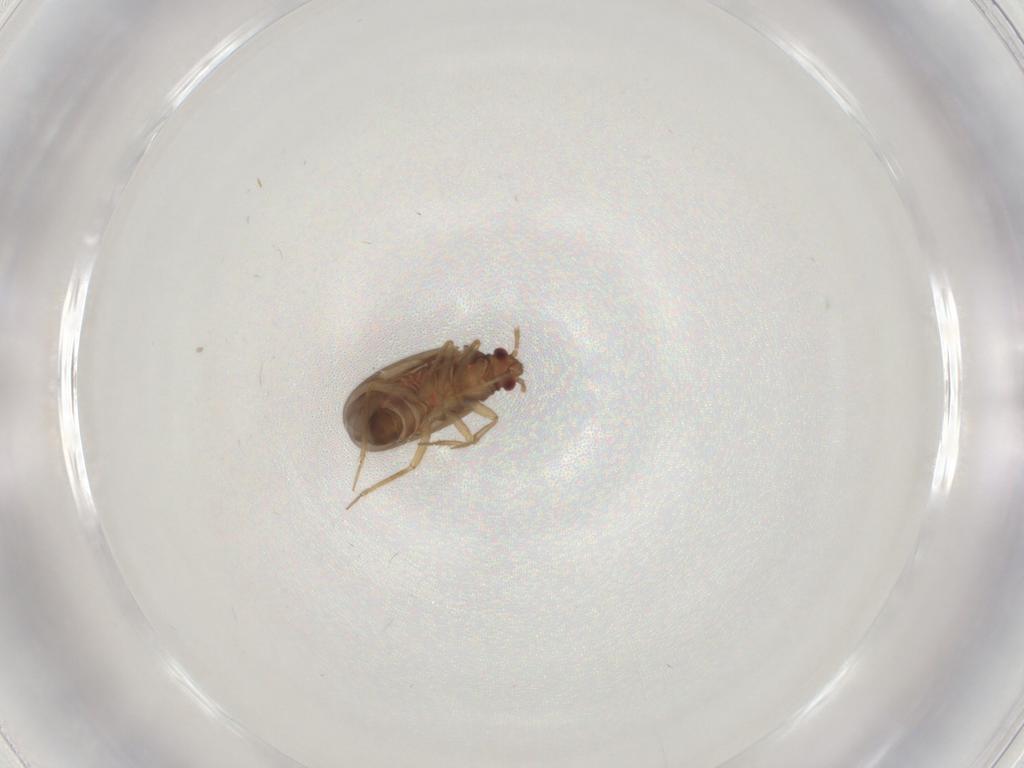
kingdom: Animalia
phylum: Arthropoda
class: Insecta
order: Hemiptera
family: Ceratocombidae
